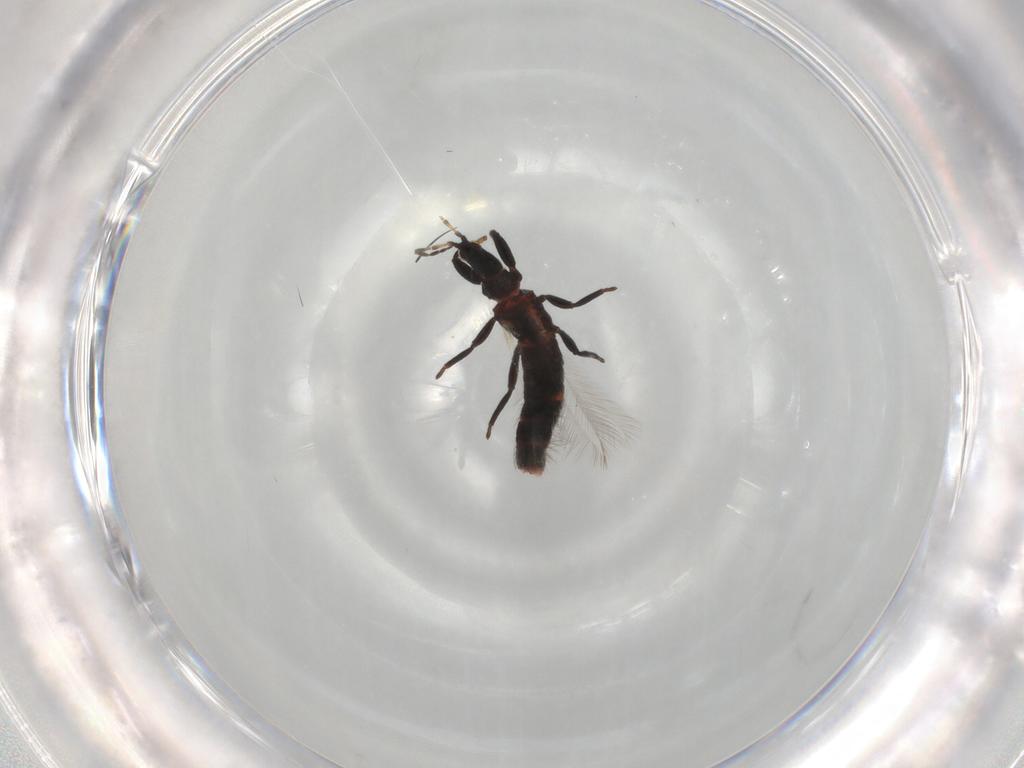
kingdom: Animalia
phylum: Arthropoda
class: Insecta
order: Thysanoptera
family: Phlaeothripidae
